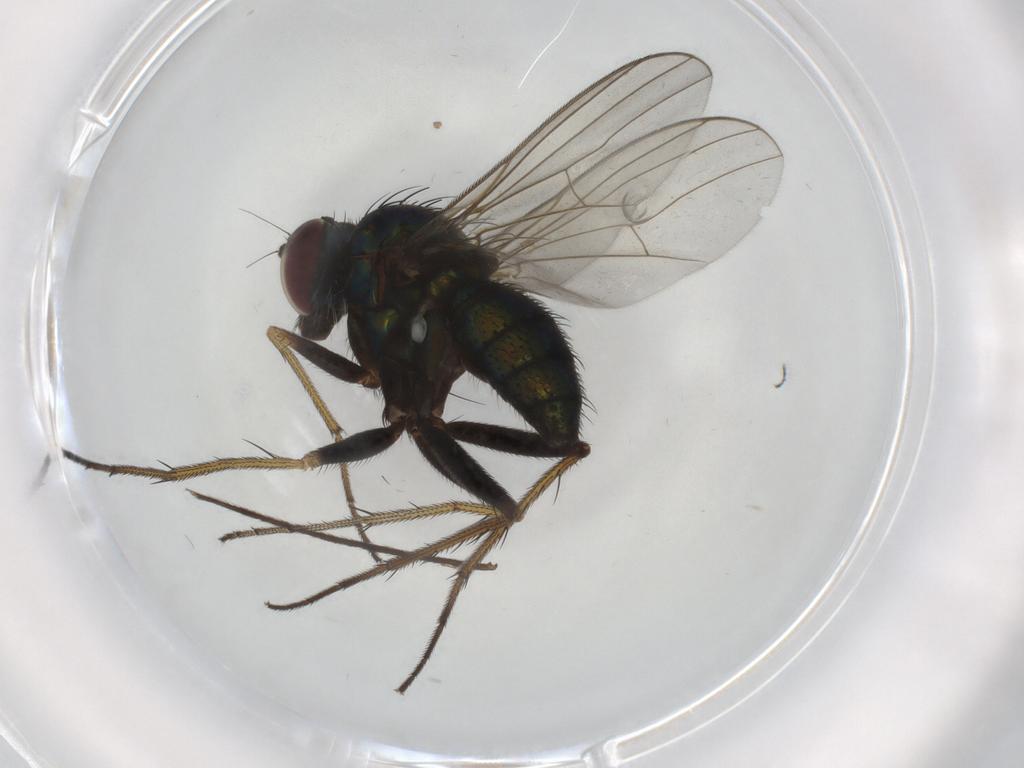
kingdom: Animalia
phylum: Arthropoda
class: Insecta
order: Diptera
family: Dolichopodidae
